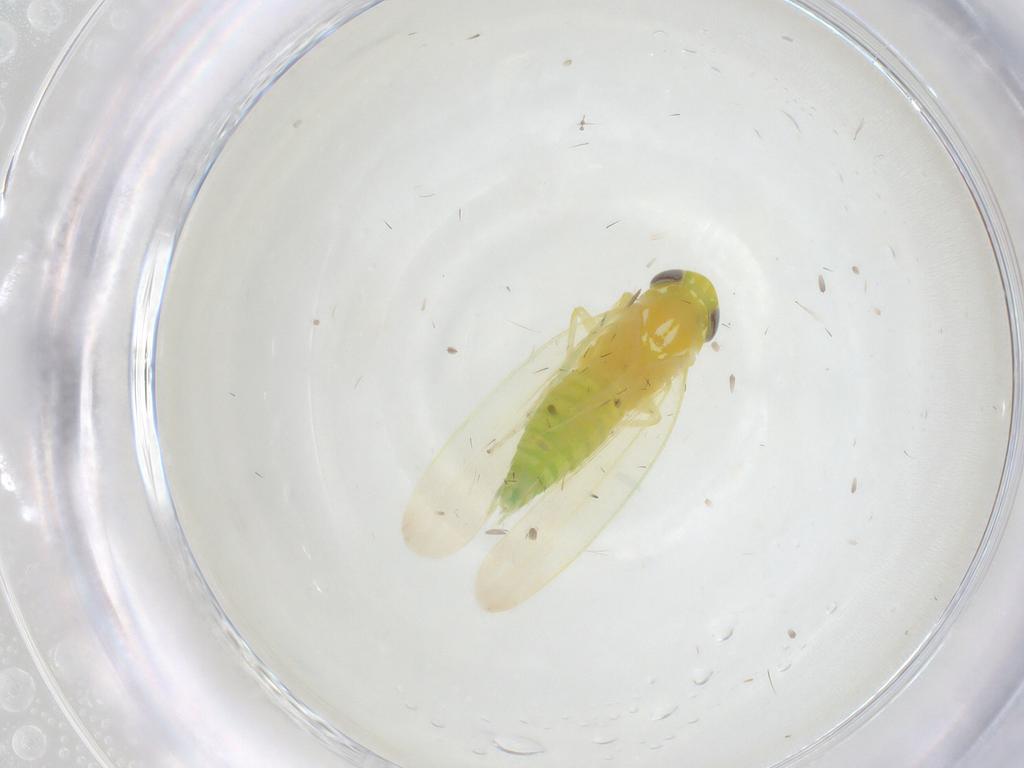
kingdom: Animalia
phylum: Arthropoda
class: Insecta
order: Hemiptera
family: Cicadellidae
